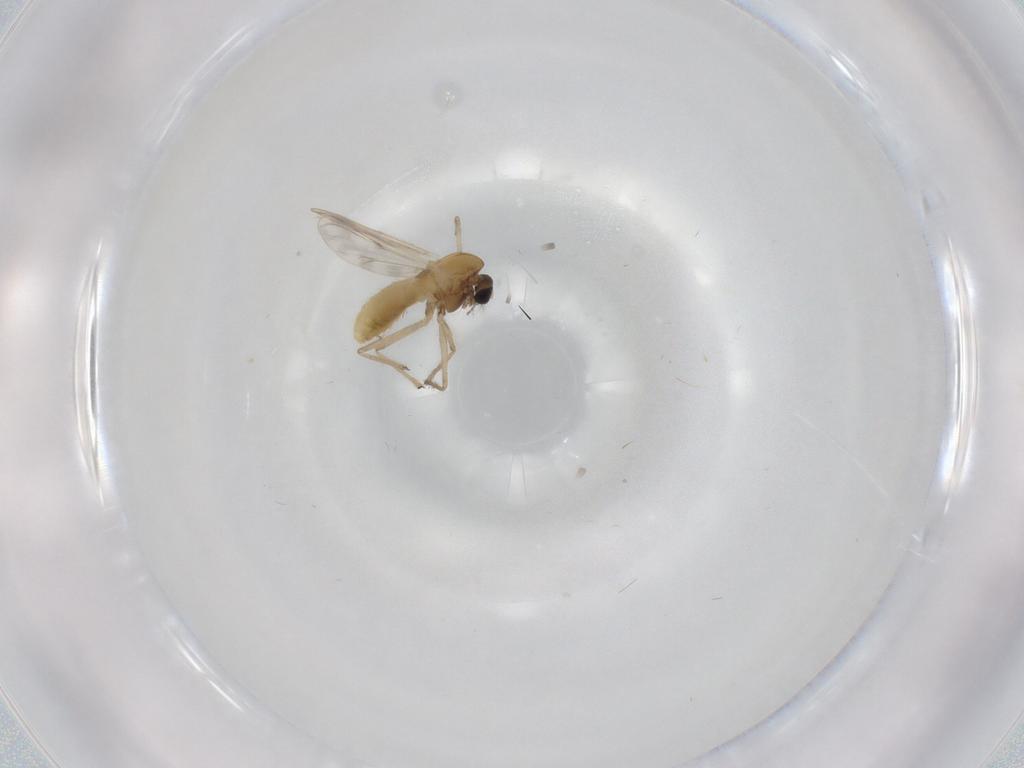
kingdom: Animalia
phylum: Arthropoda
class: Insecta
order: Diptera
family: Chironomidae
